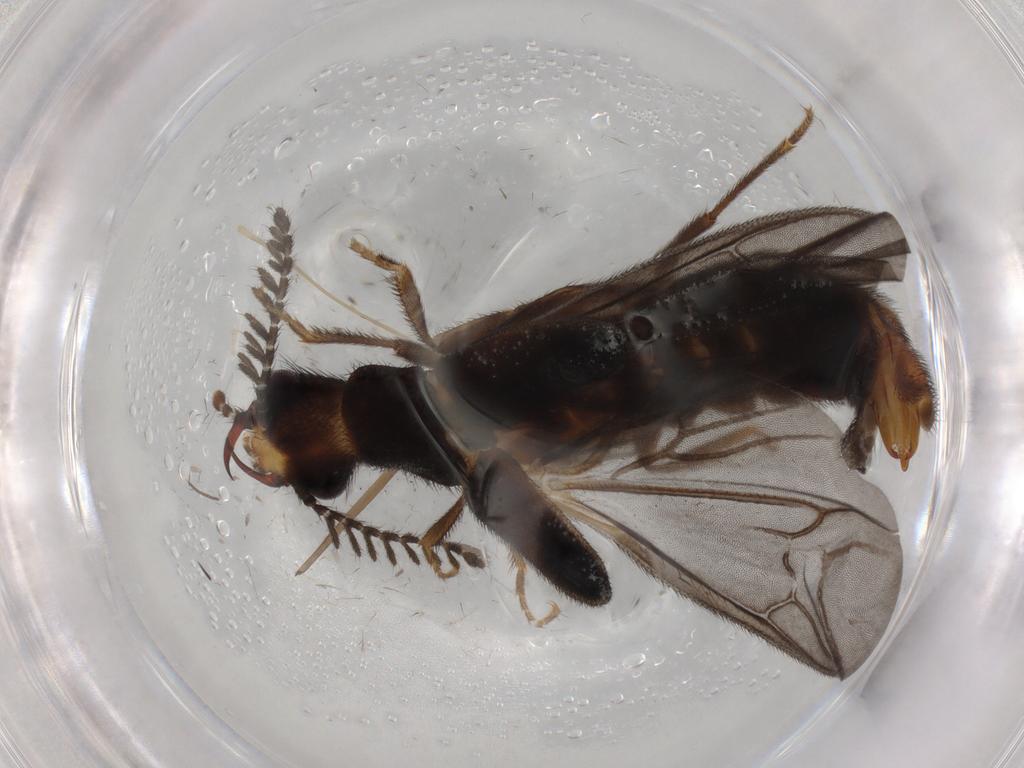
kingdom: Animalia
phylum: Arthropoda
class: Insecta
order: Coleoptera
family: Phengodidae
